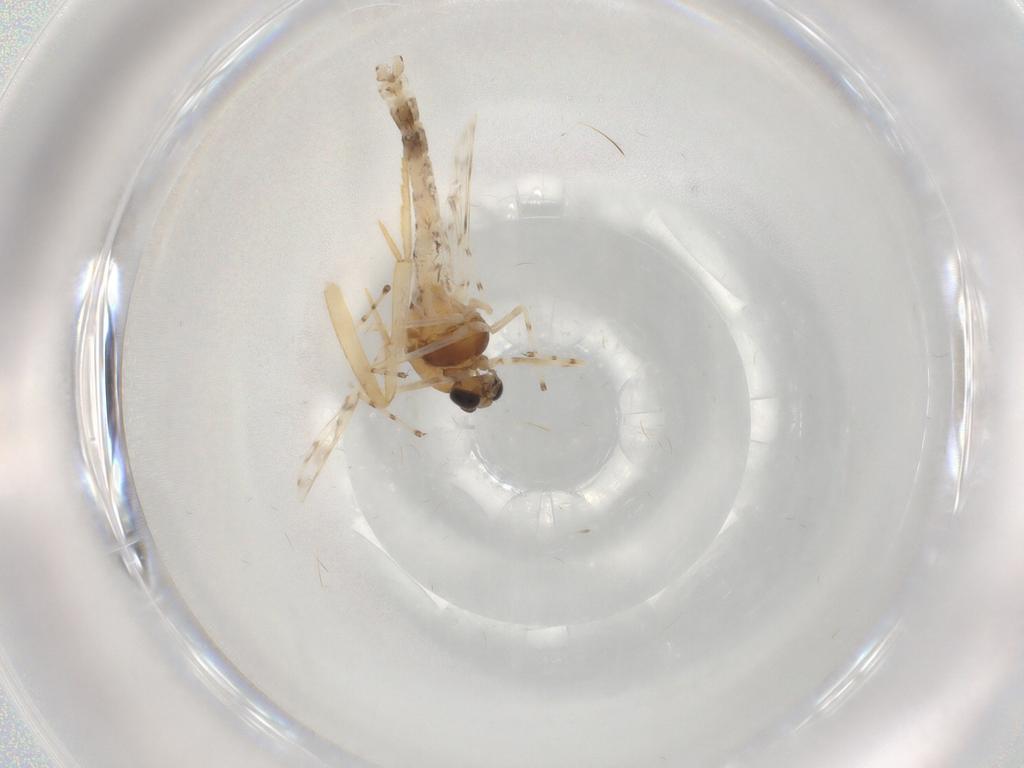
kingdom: Animalia
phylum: Arthropoda
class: Insecta
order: Diptera
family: Chironomidae
